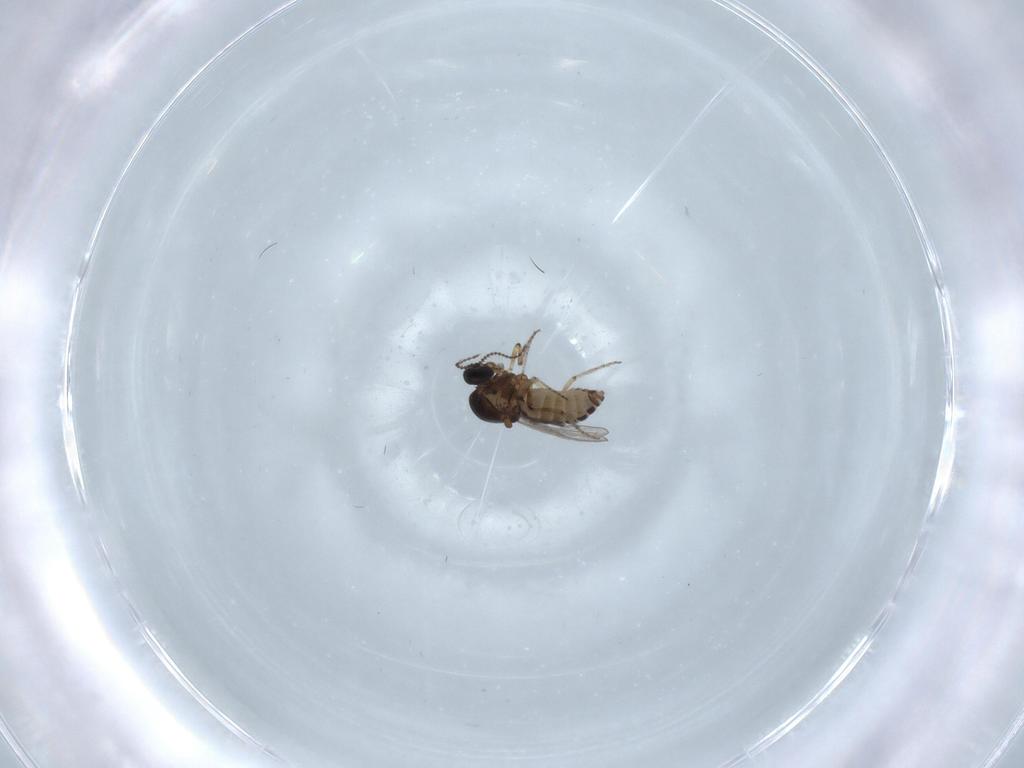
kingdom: Animalia
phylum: Arthropoda
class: Insecta
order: Diptera
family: Ceratopogonidae
